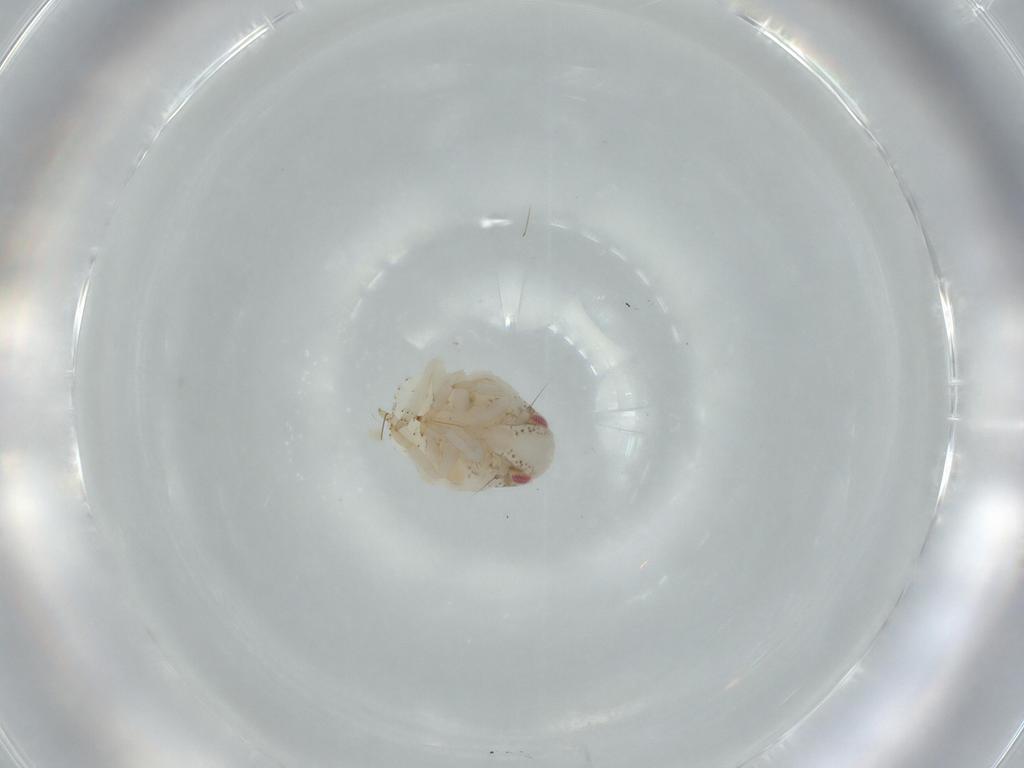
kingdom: Animalia
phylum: Arthropoda
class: Insecta
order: Hemiptera
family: Acanaloniidae
